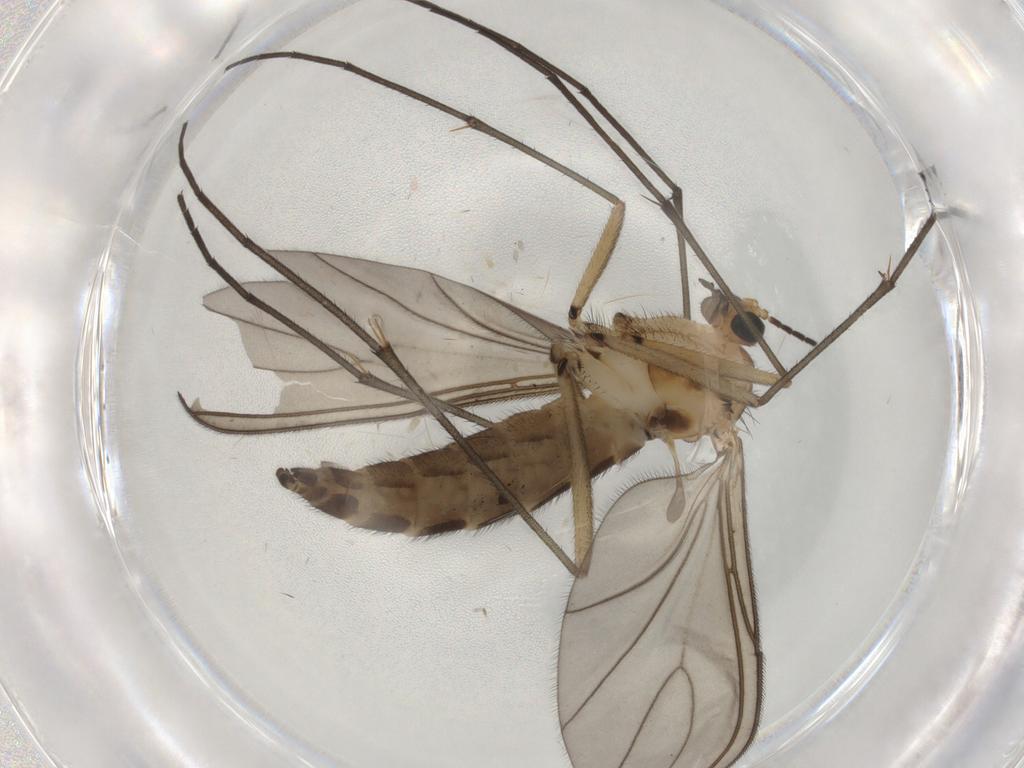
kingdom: Animalia
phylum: Arthropoda
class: Insecta
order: Diptera
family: Sciaridae
